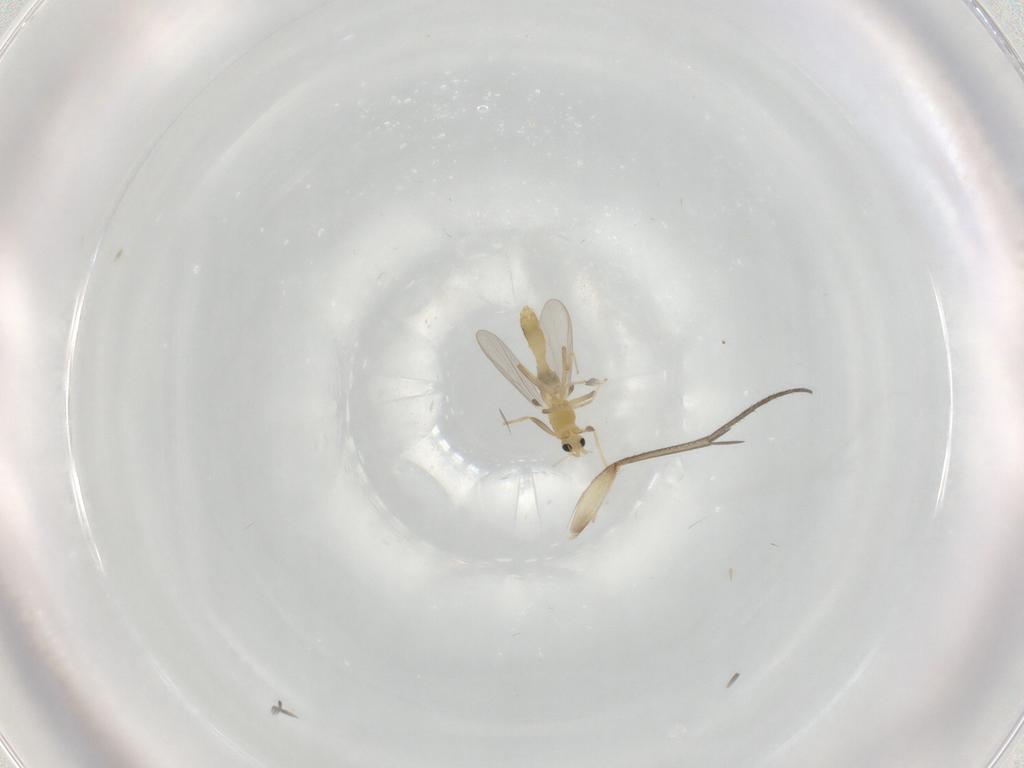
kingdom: Animalia
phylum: Arthropoda
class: Insecta
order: Diptera
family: Chironomidae
